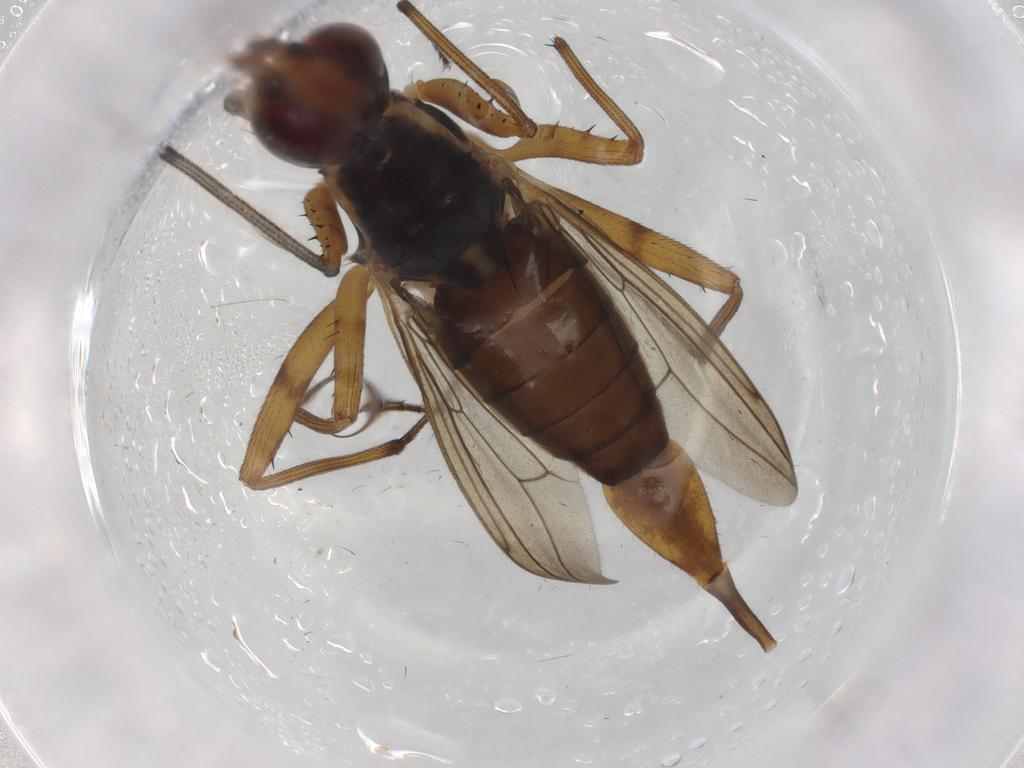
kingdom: Animalia
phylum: Arthropoda
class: Insecta
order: Diptera
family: Neriidae
